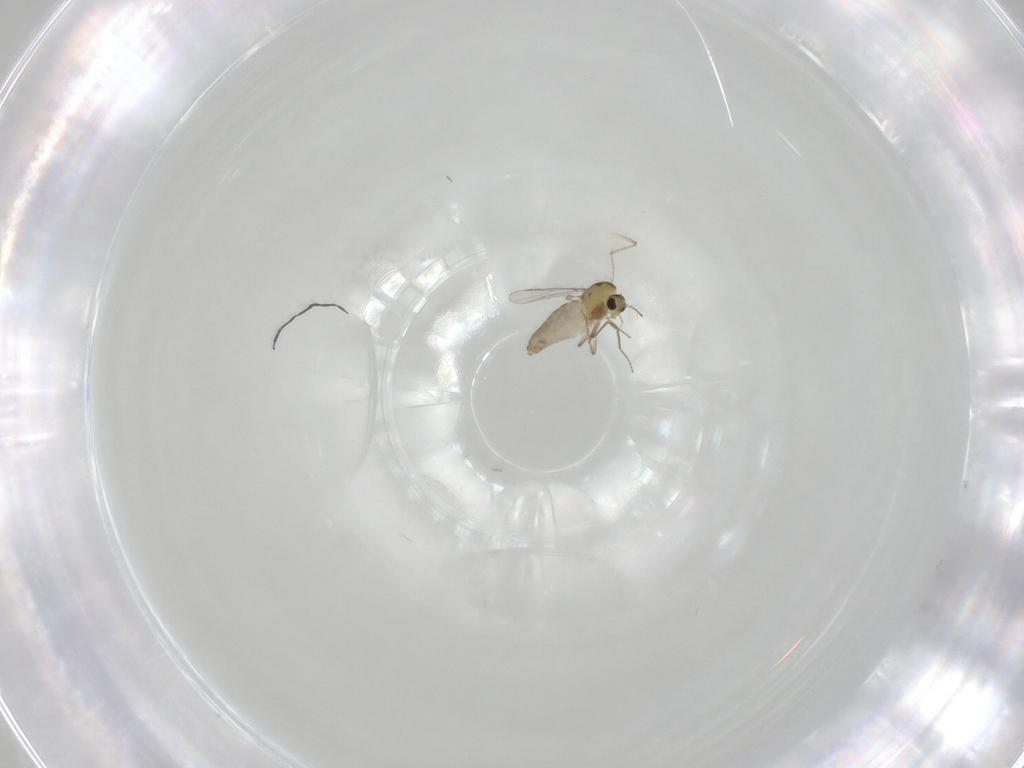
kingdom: Animalia
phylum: Arthropoda
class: Insecta
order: Diptera
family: Chironomidae
